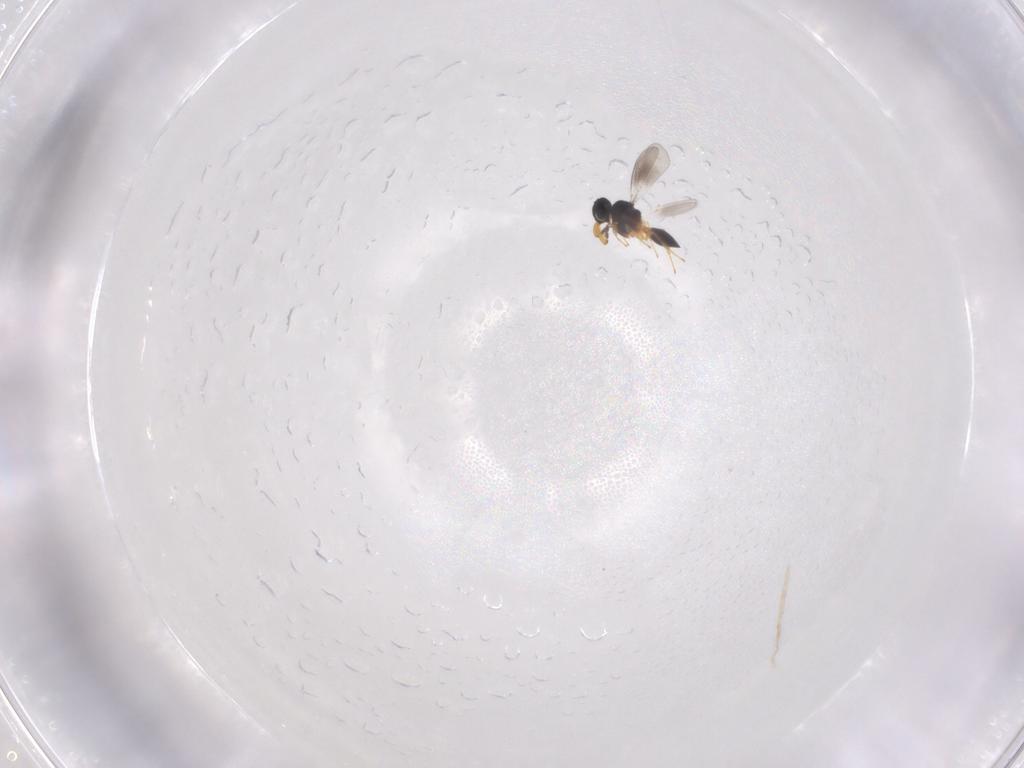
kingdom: Animalia
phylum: Arthropoda
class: Insecta
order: Hymenoptera
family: Platygastridae
